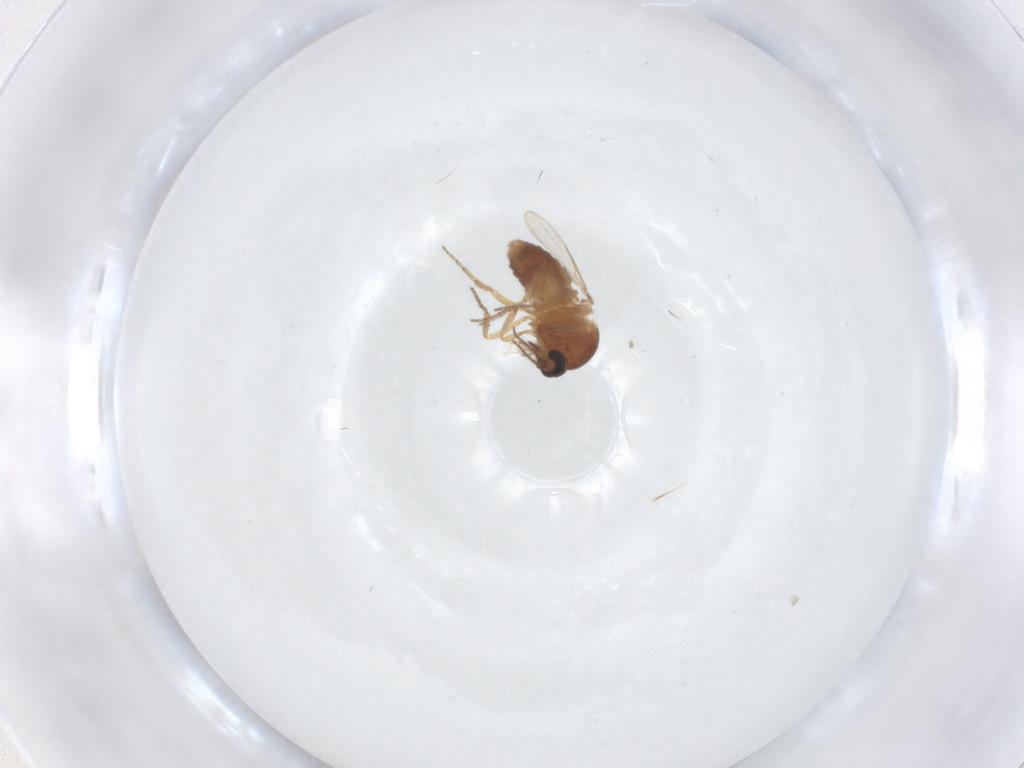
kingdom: Animalia
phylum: Arthropoda
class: Insecta
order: Diptera
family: Ceratopogonidae
